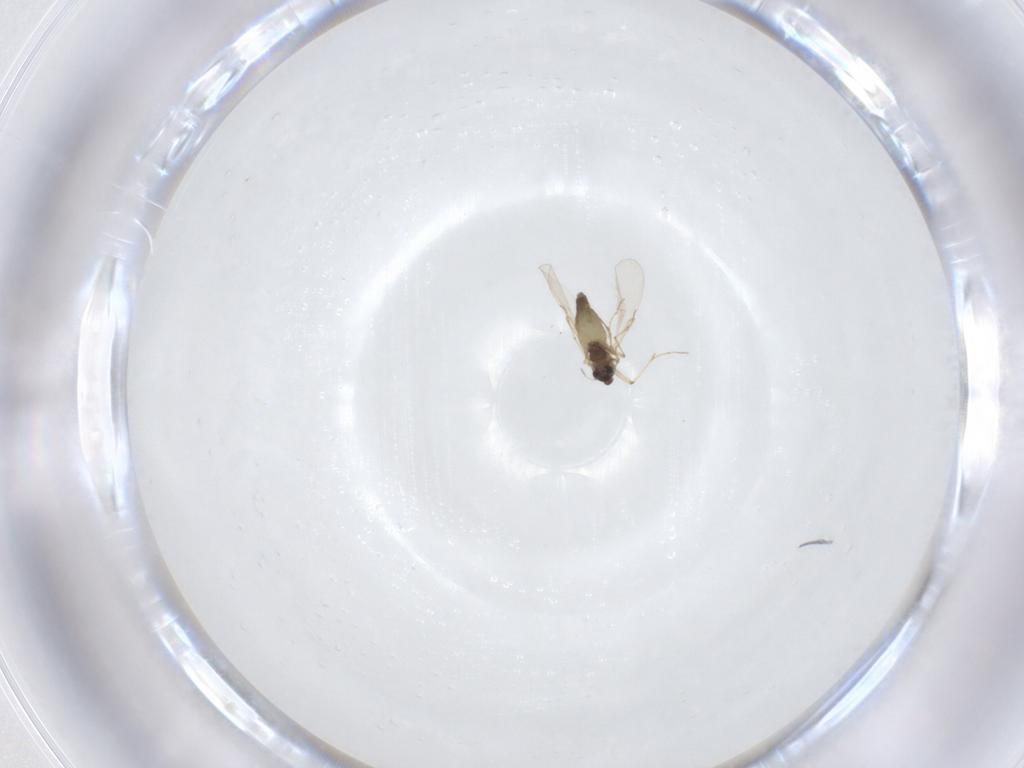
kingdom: Animalia
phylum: Arthropoda
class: Insecta
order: Diptera
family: Chironomidae
